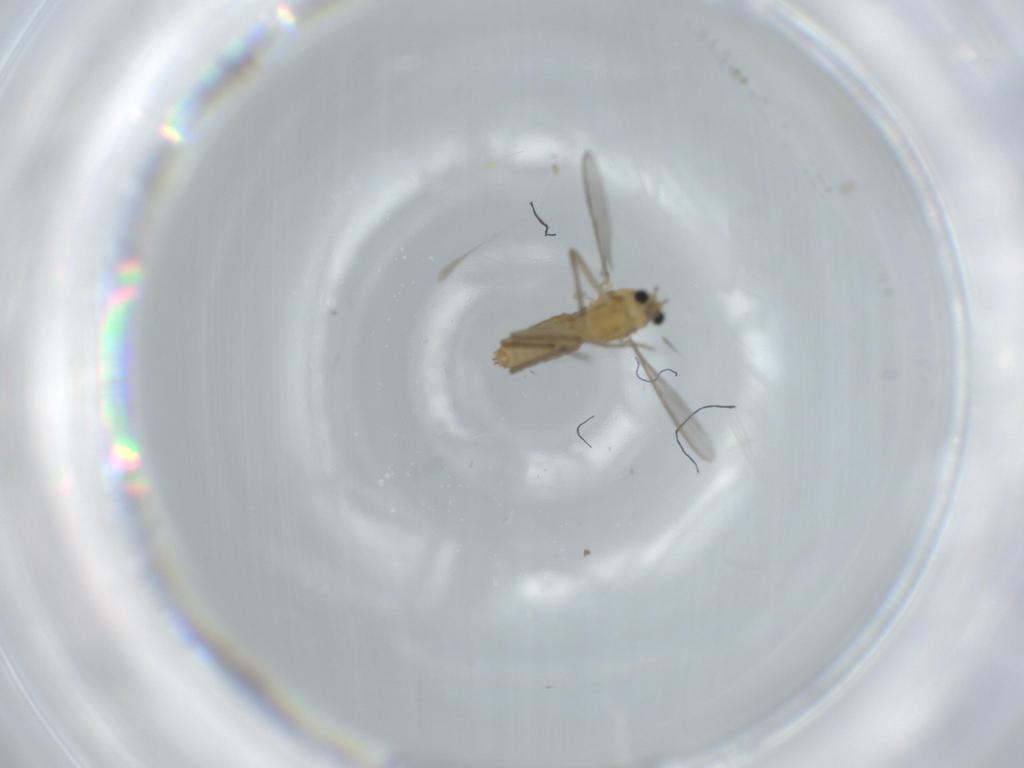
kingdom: Animalia
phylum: Arthropoda
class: Insecta
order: Diptera
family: Chironomidae
